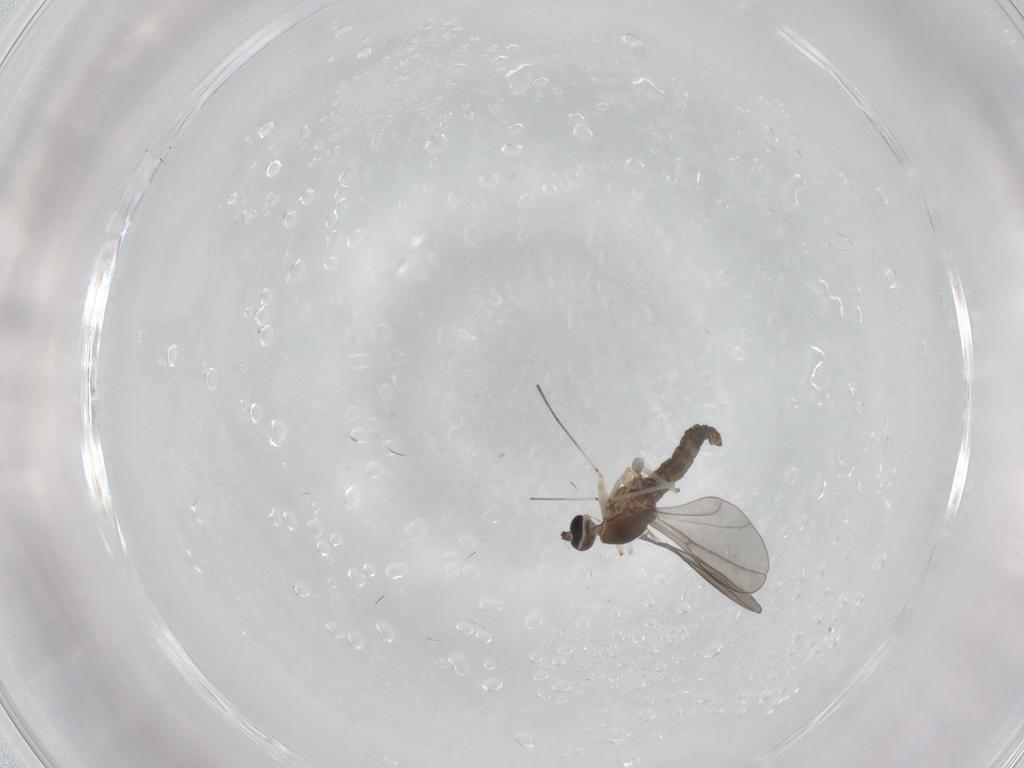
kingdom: Animalia
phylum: Arthropoda
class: Insecta
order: Diptera
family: Cecidomyiidae
